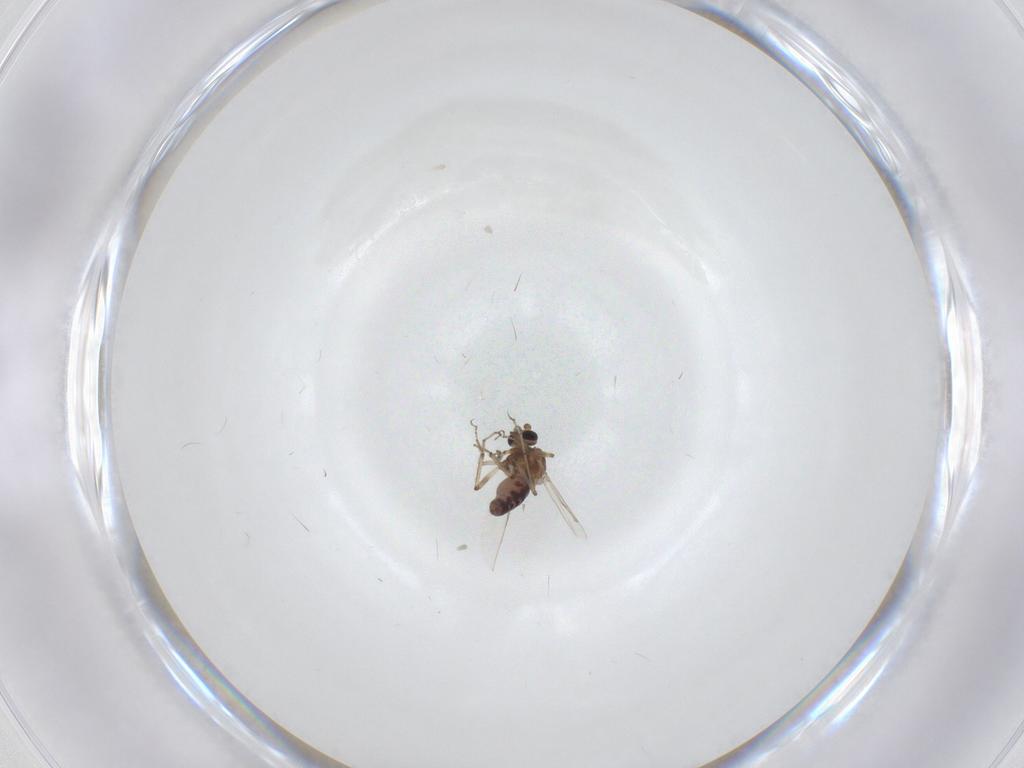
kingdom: Animalia
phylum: Arthropoda
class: Insecta
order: Diptera
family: Ceratopogonidae
